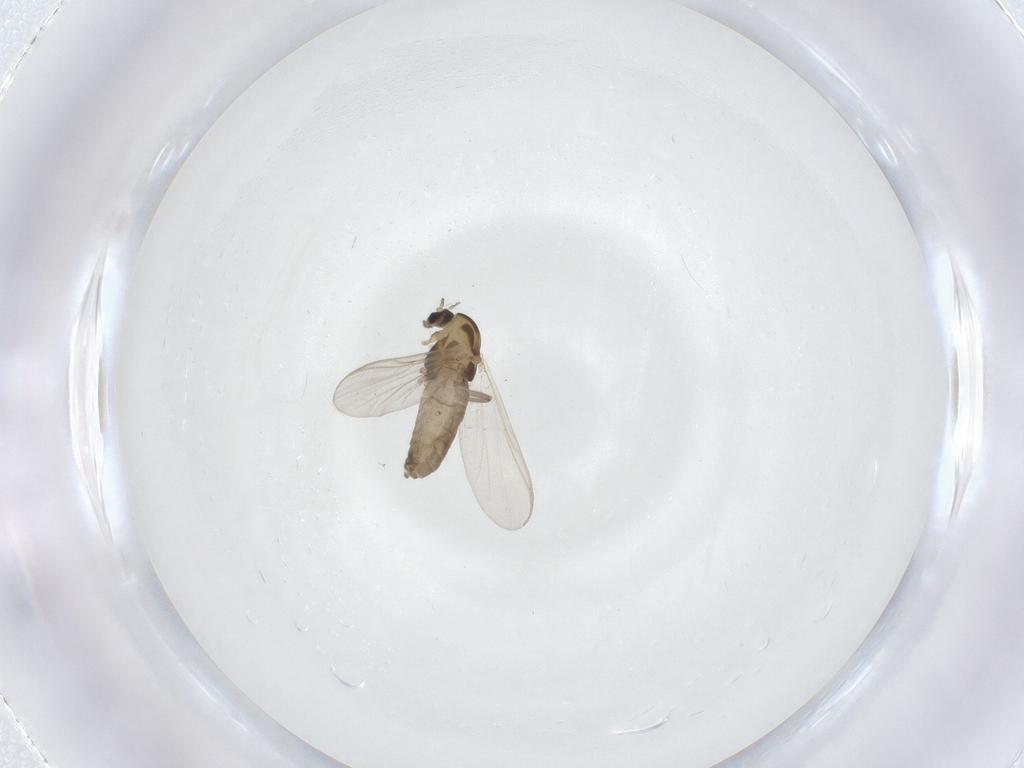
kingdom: Animalia
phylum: Arthropoda
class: Insecta
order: Diptera
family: Chironomidae
